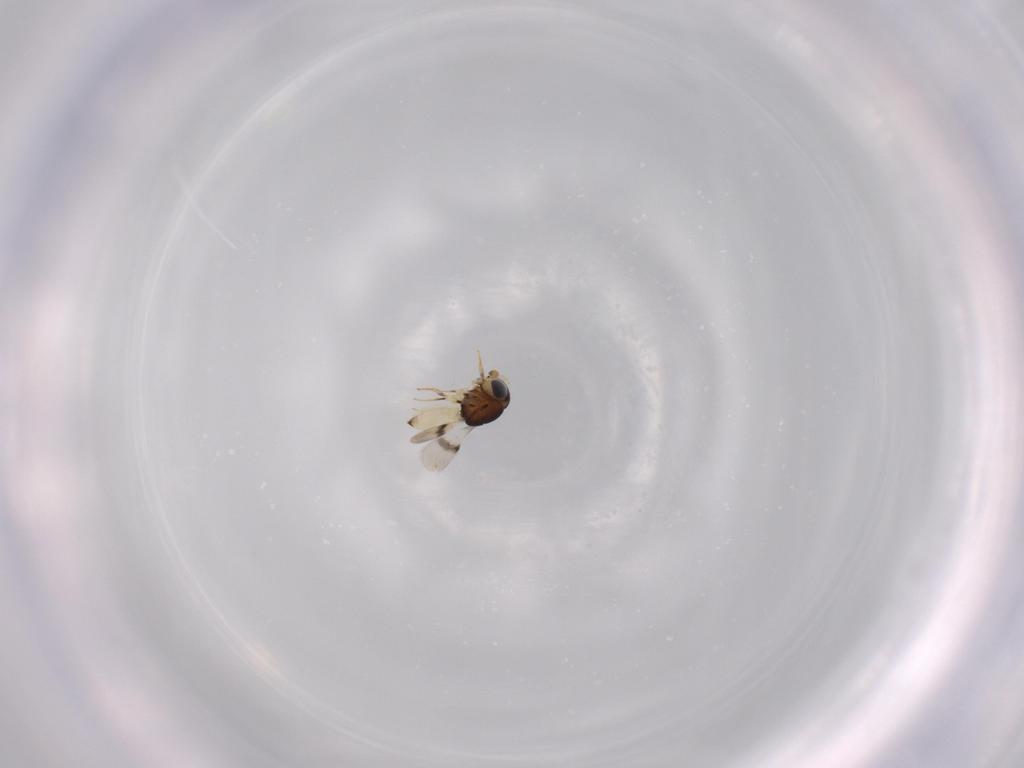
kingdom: Animalia
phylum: Arthropoda
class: Insecta
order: Hymenoptera
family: Scelionidae
